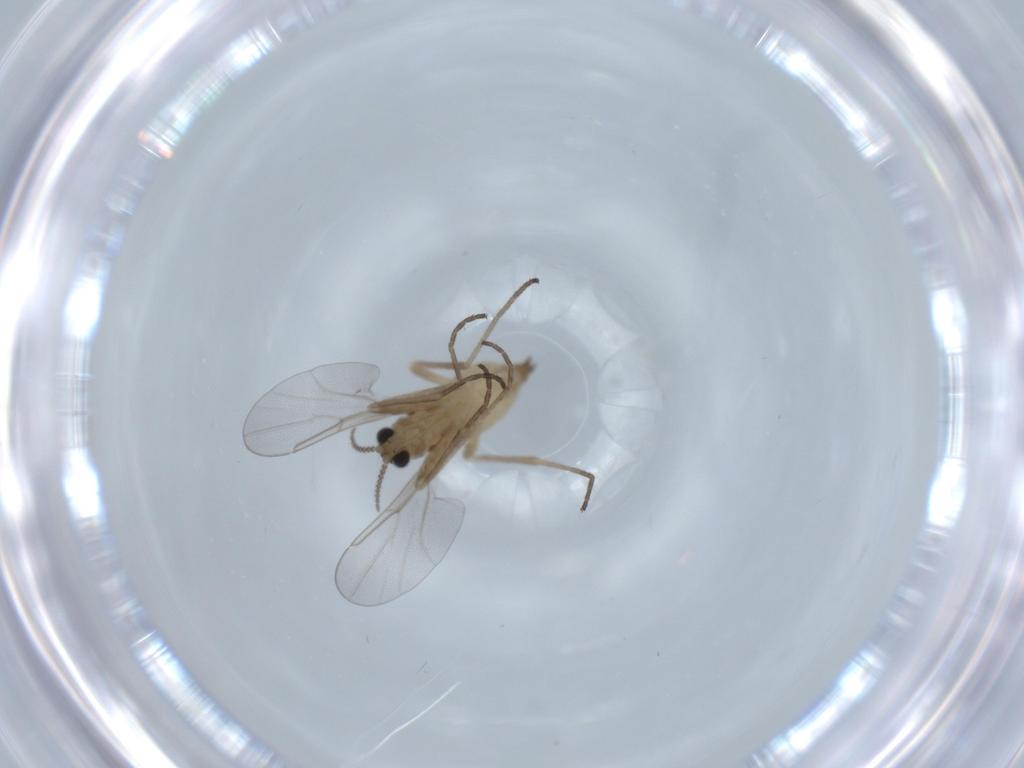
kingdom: Animalia
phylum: Arthropoda
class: Insecta
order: Diptera
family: Cecidomyiidae
